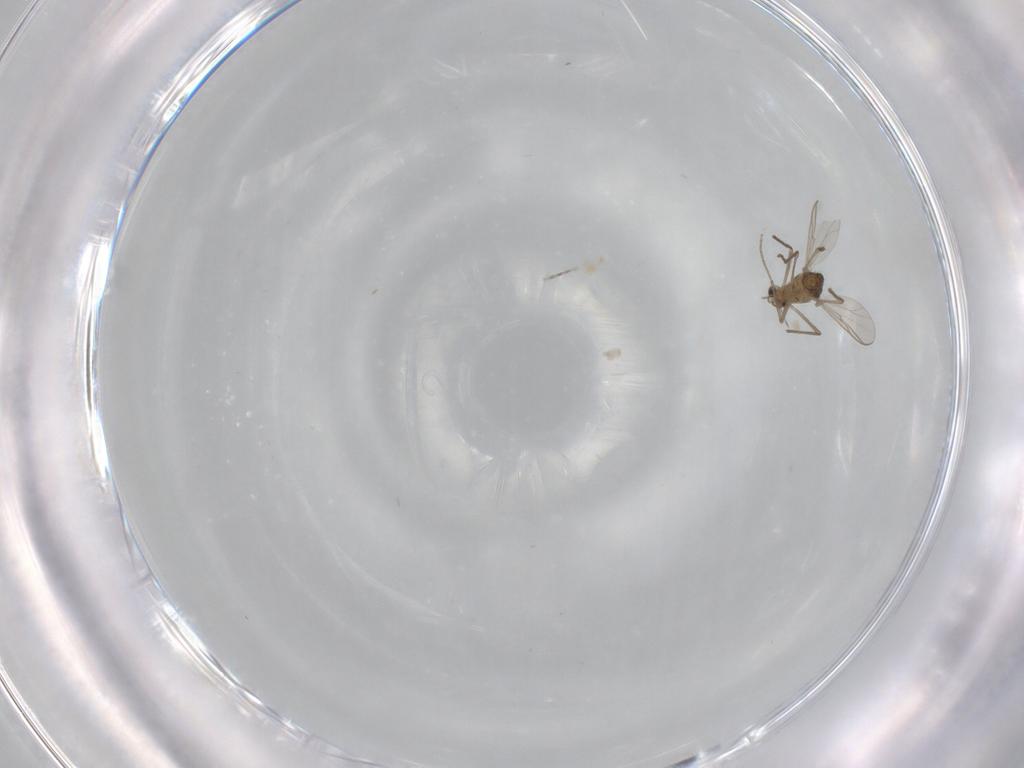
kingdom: Animalia
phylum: Arthropoda
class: Insecta
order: Diptera
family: Chironomidae
